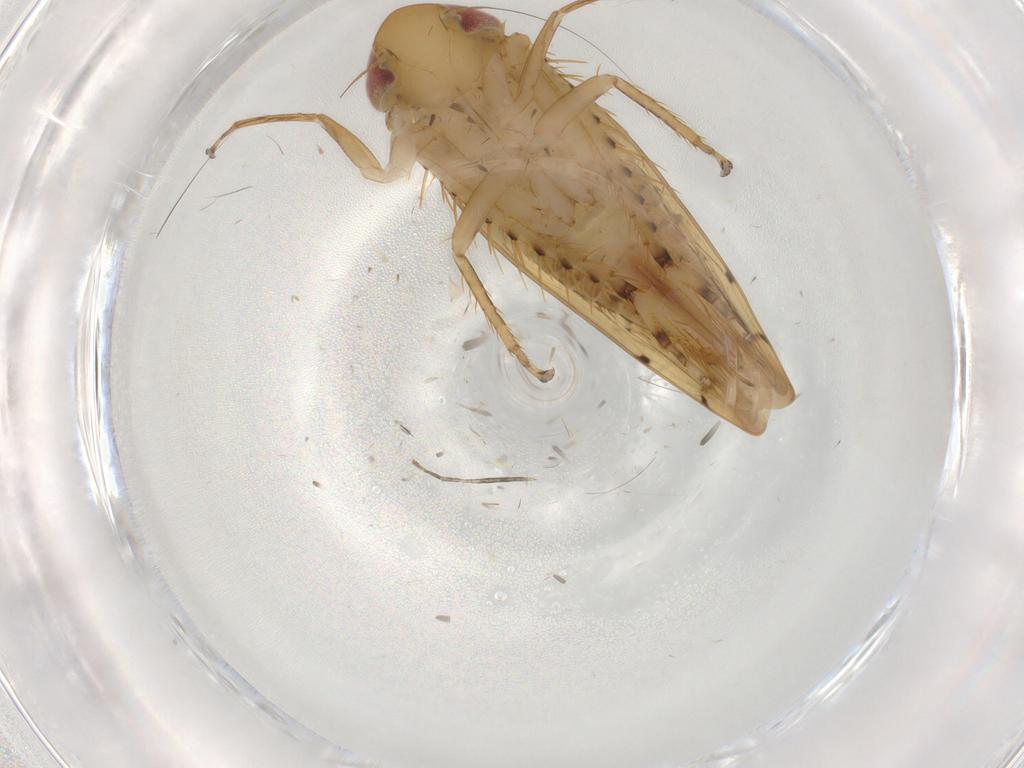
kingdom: Animalia
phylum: Arthropoda
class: Insecta
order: Hemiptera
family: Cicadellidae
